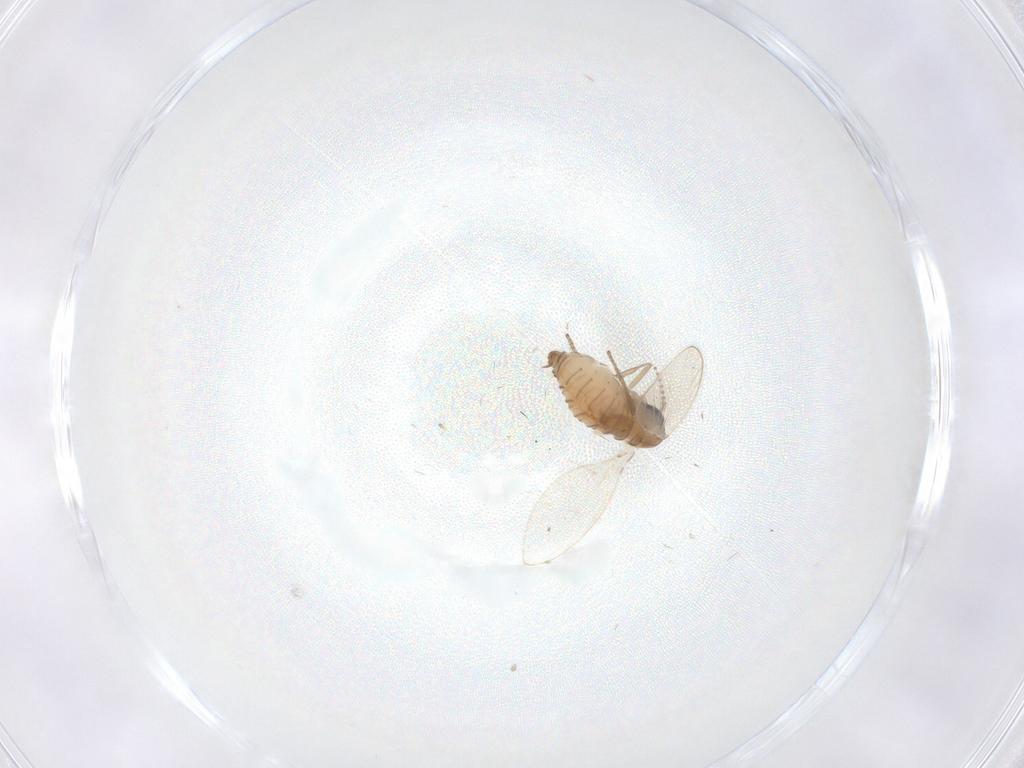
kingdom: Animalia
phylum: Arthropoda
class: Insecta
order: Diptera
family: Psychodidae
